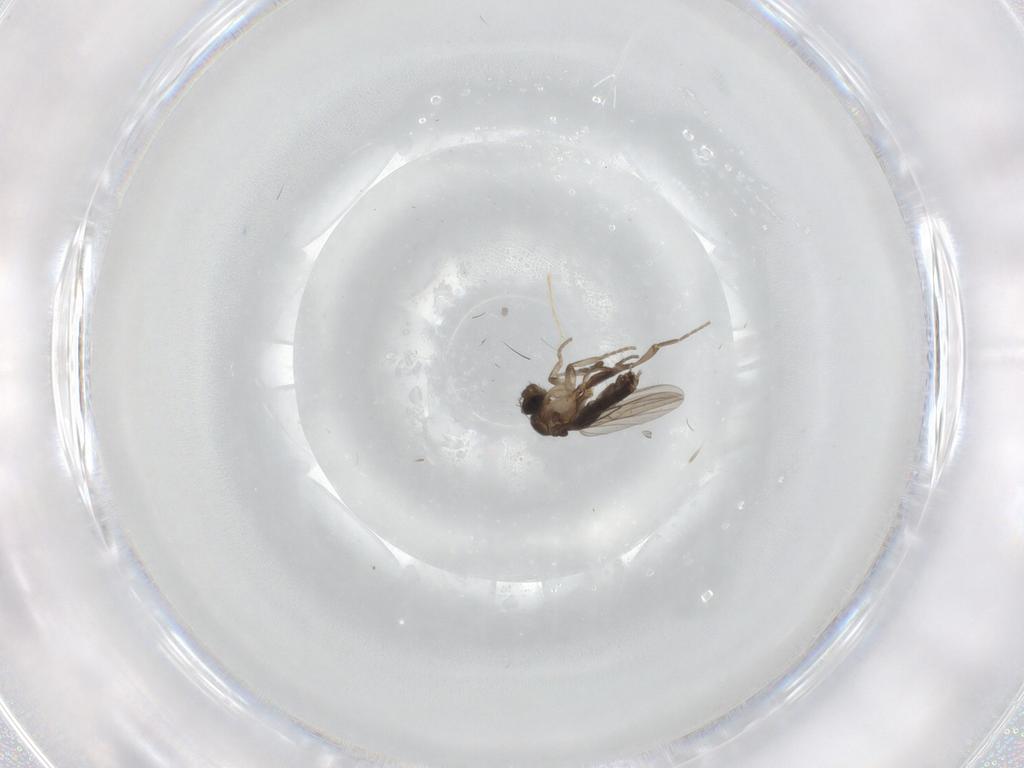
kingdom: Animalia
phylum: Arthropoda
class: Insecta
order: Diptera
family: Phoridae
